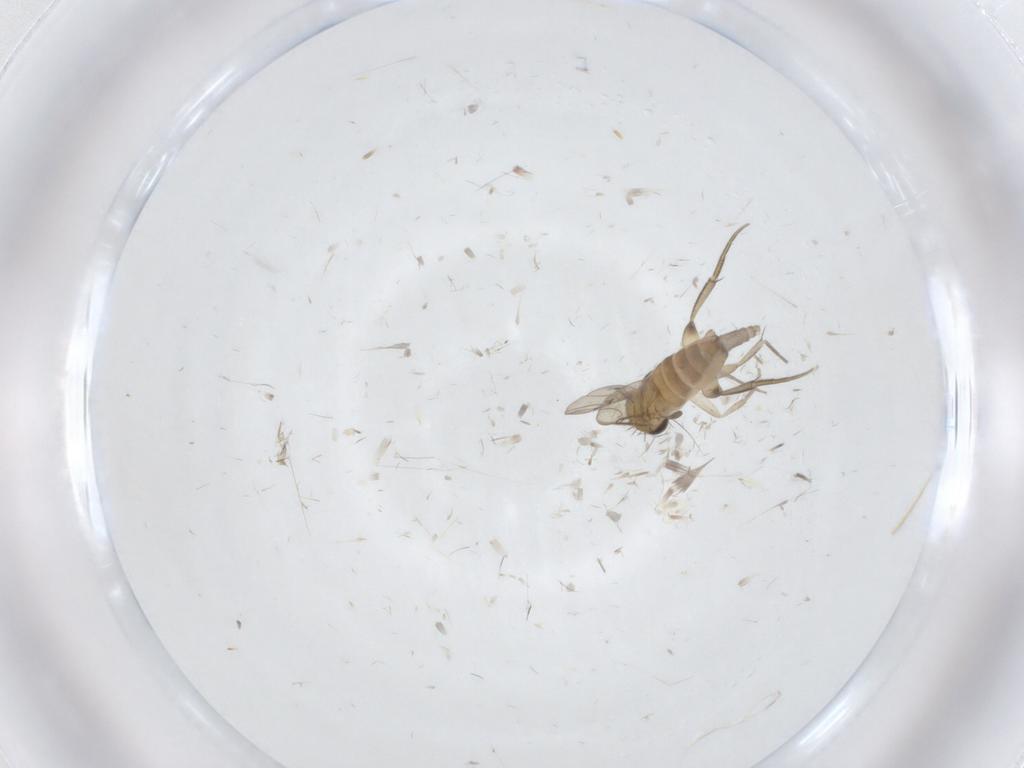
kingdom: Animalia
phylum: Arthropoda
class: Insecta
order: Diptera
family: Phoridae
